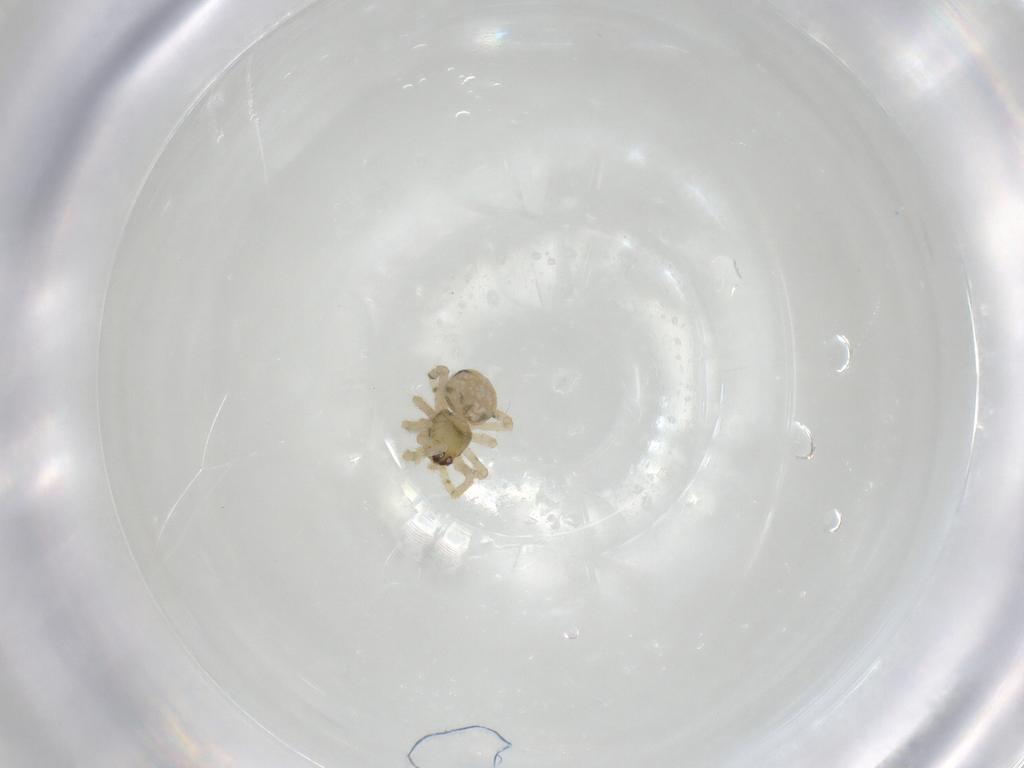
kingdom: Animalia
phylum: Arthropoda
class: Arachnida
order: Araneae
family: Theridiidae
